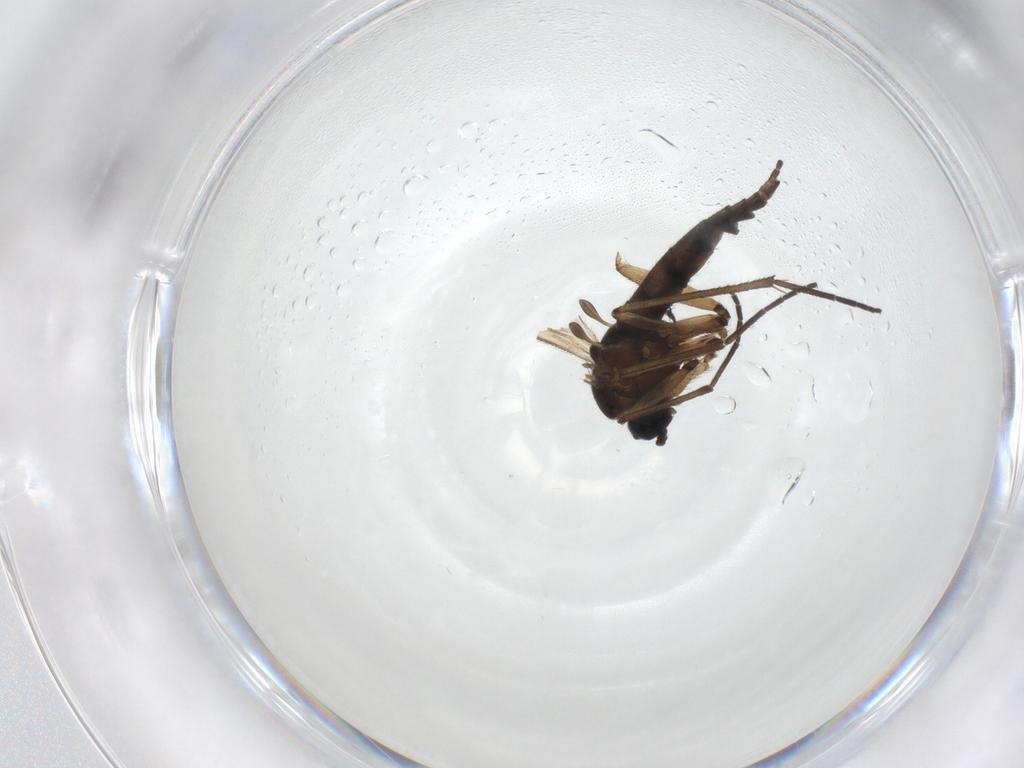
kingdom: Animalia
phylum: Arthropoda
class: Insecta
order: Diptera
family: Sciaridae
